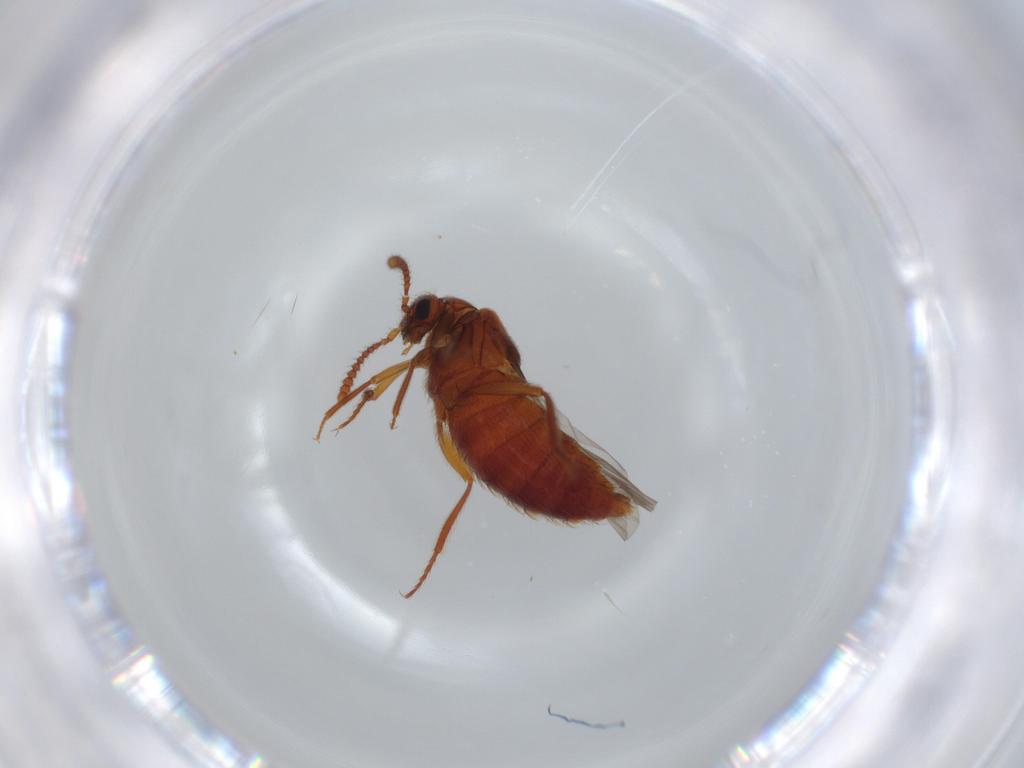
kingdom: Animalia
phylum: Arthropoda
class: Insecta
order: Coleoptera
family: Staphylinidae
